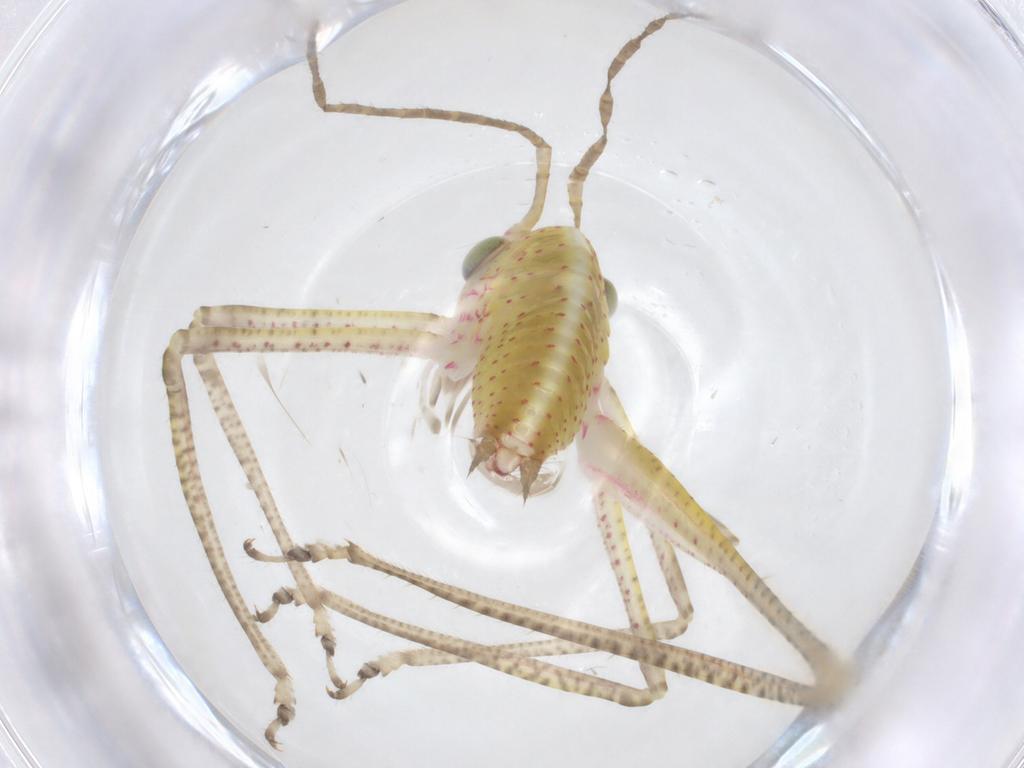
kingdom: Animalia
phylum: Arthropoda
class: Insecta
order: Orthoptera
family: Tettigoniidae
